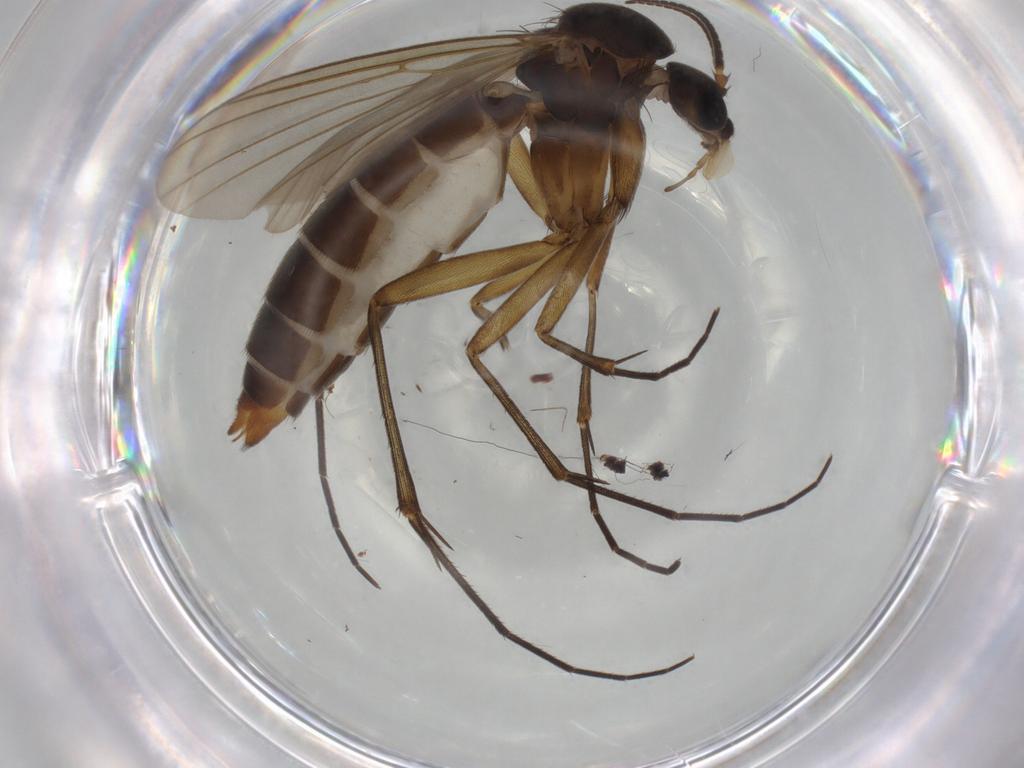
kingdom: Animalia
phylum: Arthropoda
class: Insecta
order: Diptera
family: Mycetophilidae
